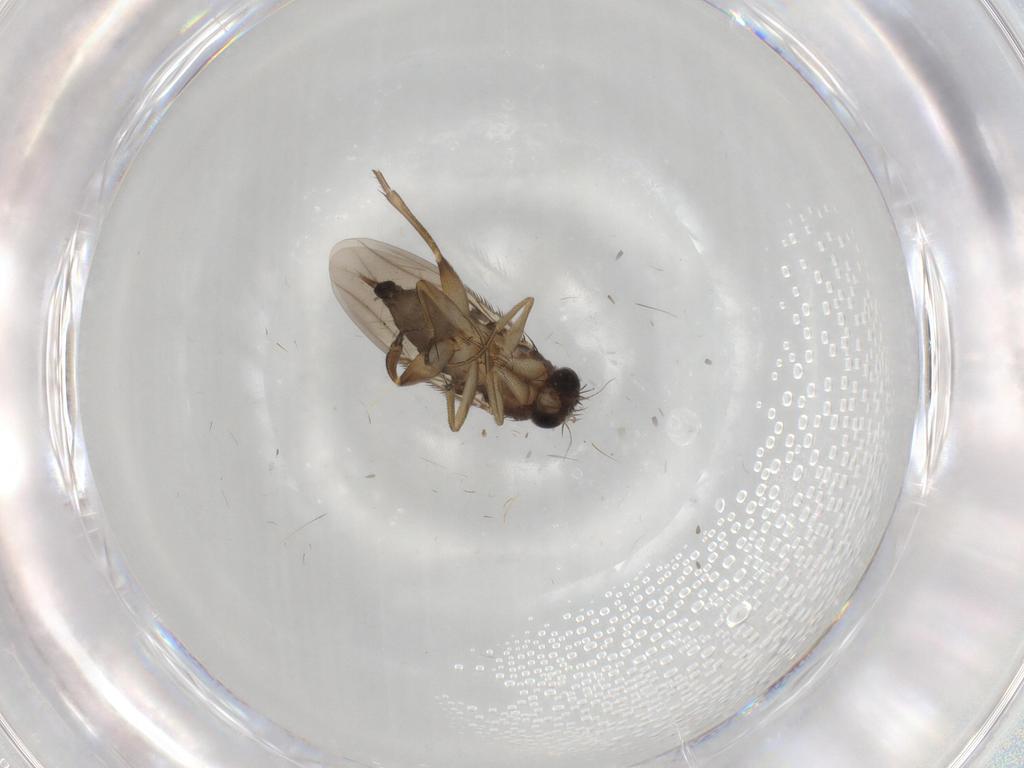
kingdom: Animalia
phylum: Arthropoda
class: Insecta
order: Diptera
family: Phoridae
